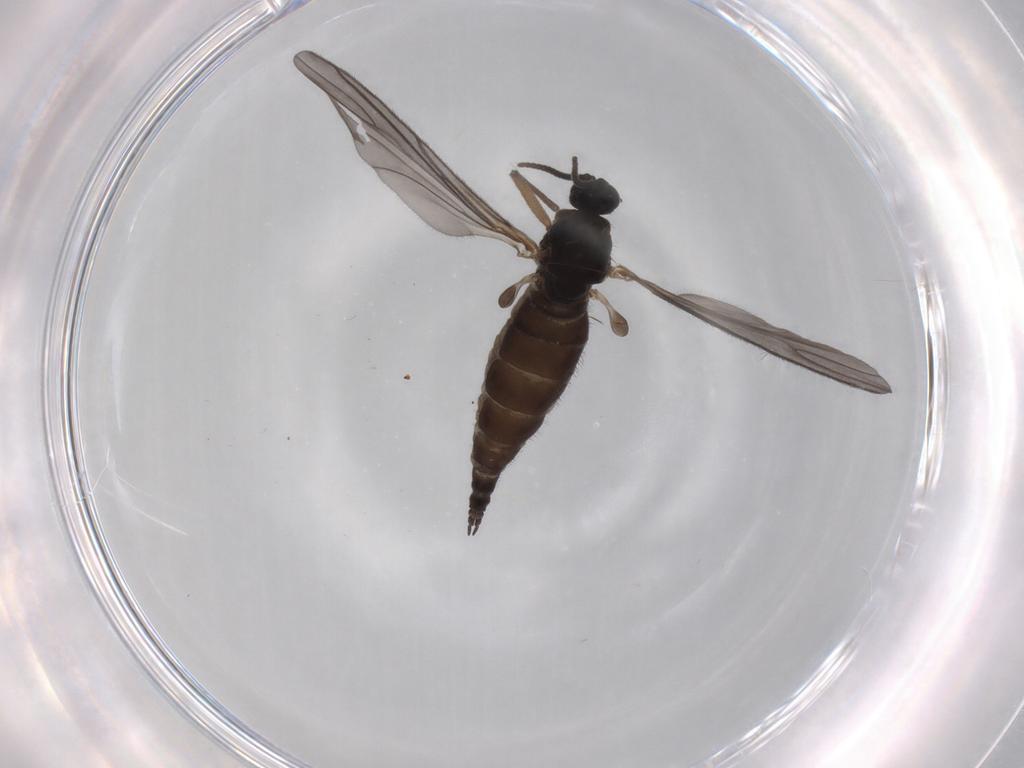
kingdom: Animalia
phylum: Arthropoda
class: Insecta
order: Diptera
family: Sciaridae
